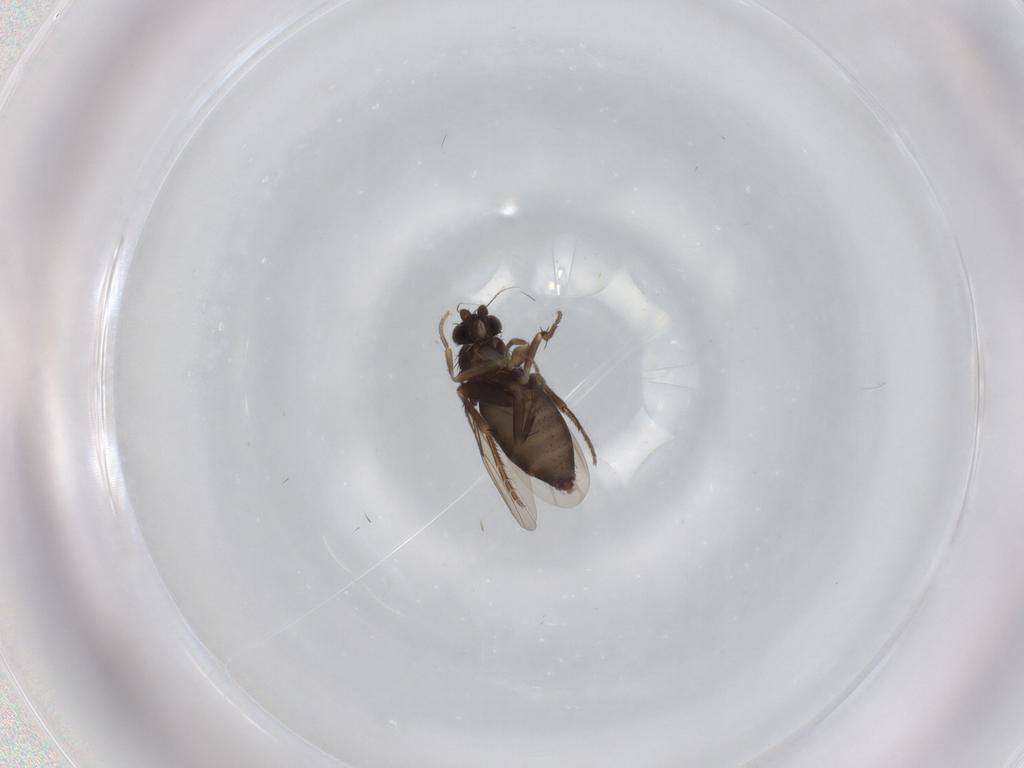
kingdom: Animalia
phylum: Arthropoda
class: Insecta
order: Diptera
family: Phoridae
